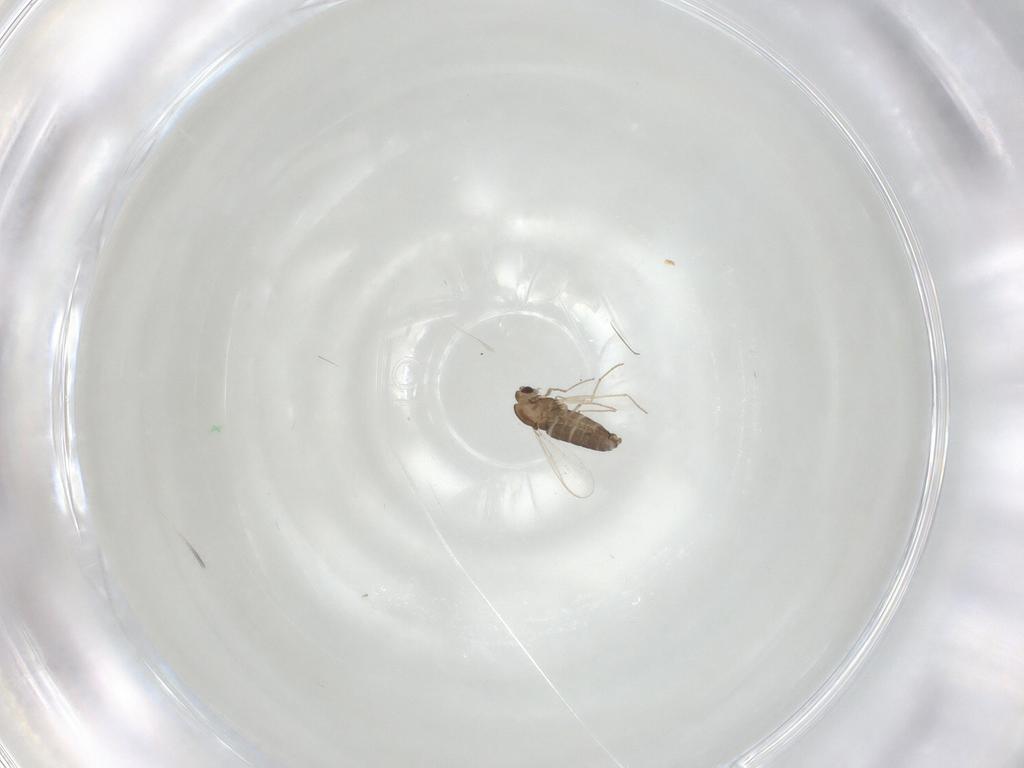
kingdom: Animalia
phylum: Arthropoda
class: Insecta
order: Diptera
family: Chironomidae
